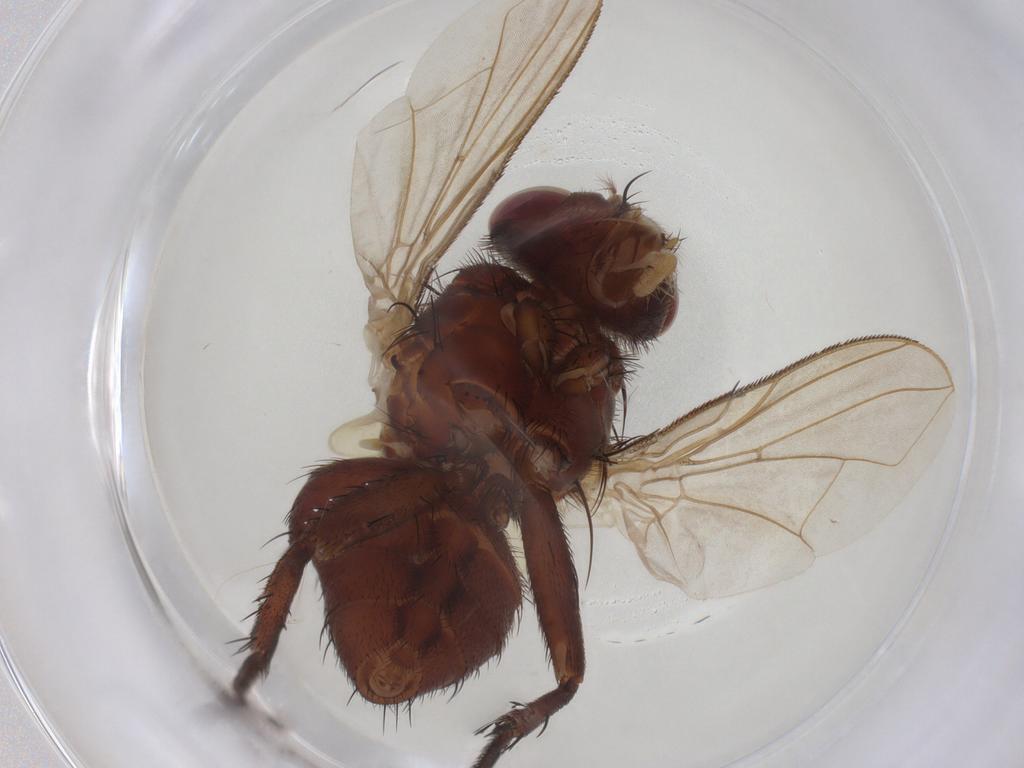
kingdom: Animalia
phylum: Arthropoda
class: Insecta
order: Diptera
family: Calliphoridae
